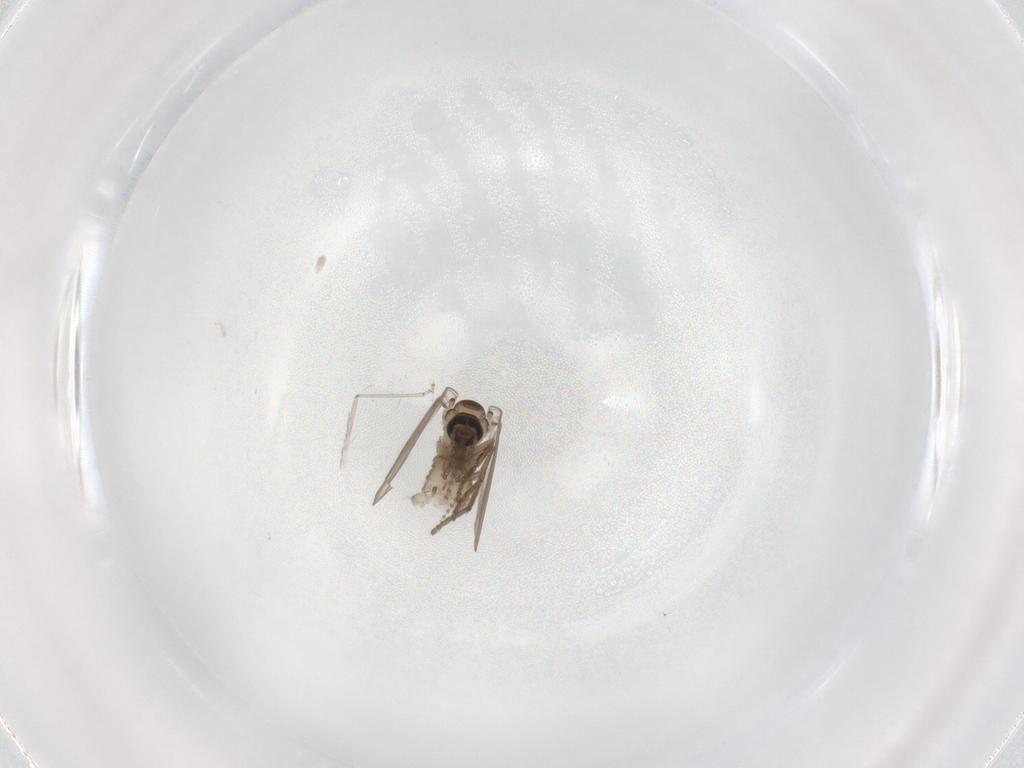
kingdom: Animalia
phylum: Arthropoda
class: Insecta
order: Diptera
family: Psychodidae
